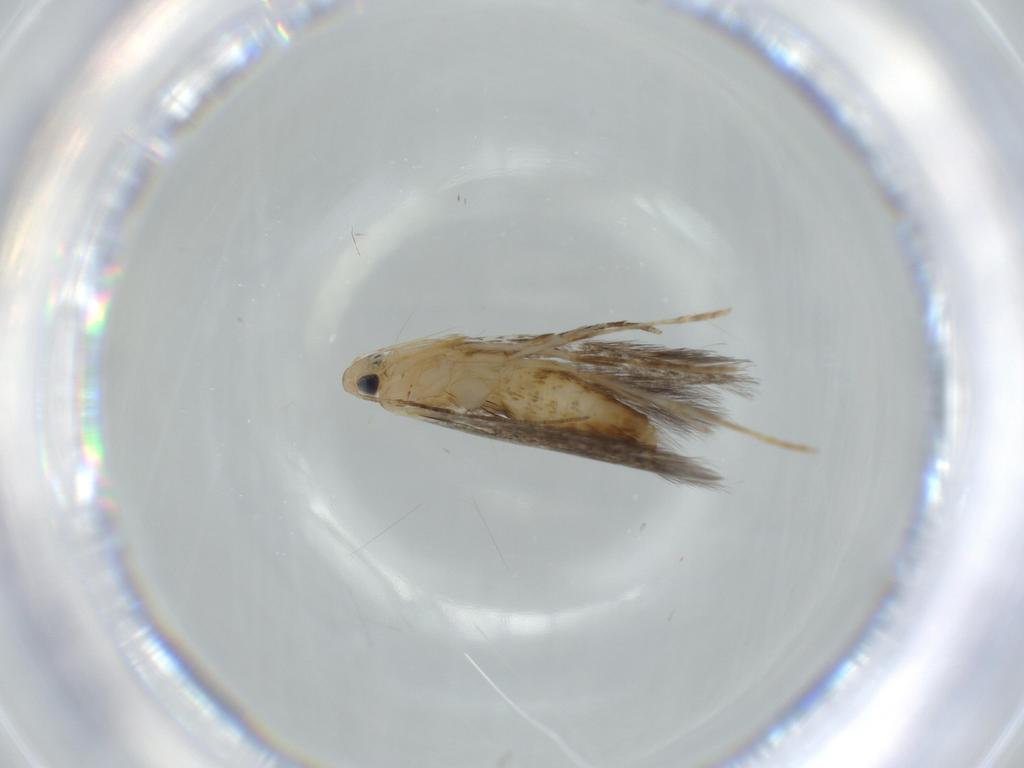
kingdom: Animalia
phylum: Arthropoda
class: Insecta
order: Lepidoptera
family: Tischeriidae
